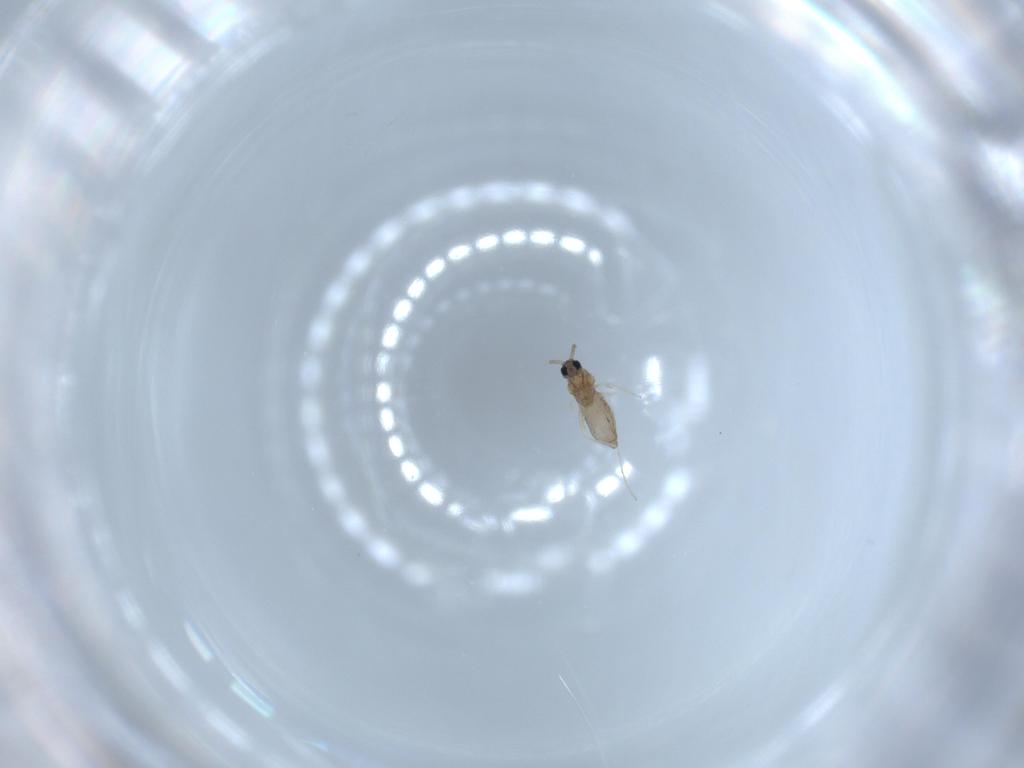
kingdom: Animalia
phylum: Arthropoda
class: Insecta
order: Diptera
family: Cecidomyiidae
